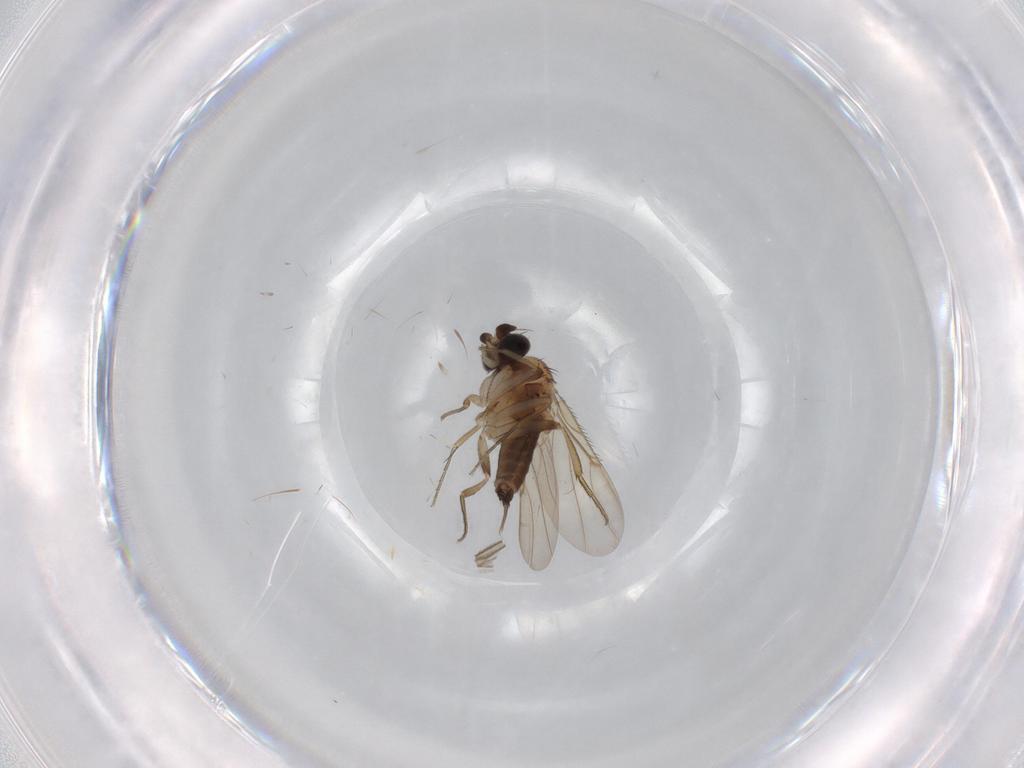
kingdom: Animalia
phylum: Arthropoda
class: Insecta
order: Diptera
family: Phoridae
